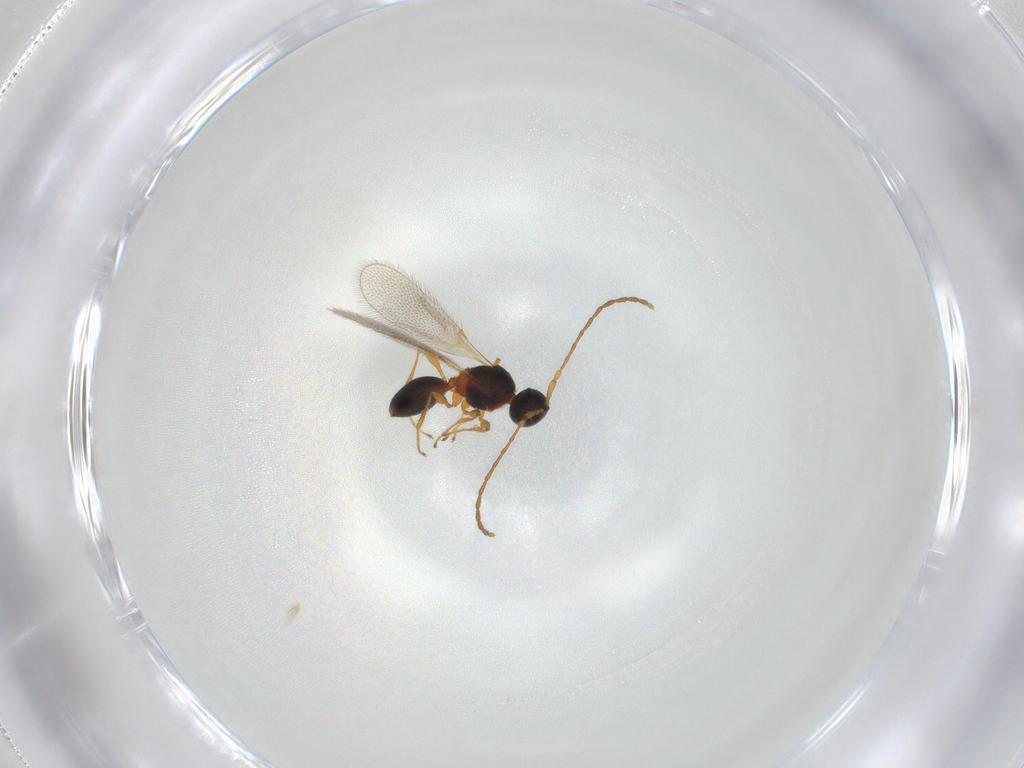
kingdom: Animalia
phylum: Arthropoda
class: Insecta
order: Hymenoptera
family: Diapriidae
